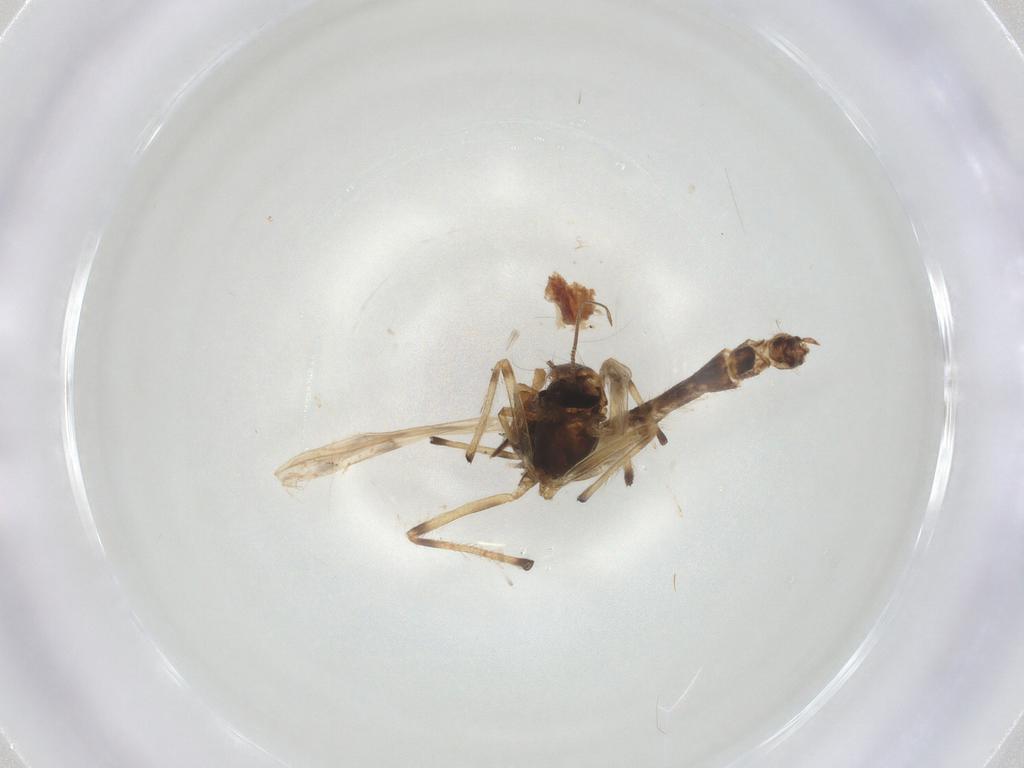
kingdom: Animalia
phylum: Arthropoda
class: Insecta
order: Diptera
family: Chironomidae
